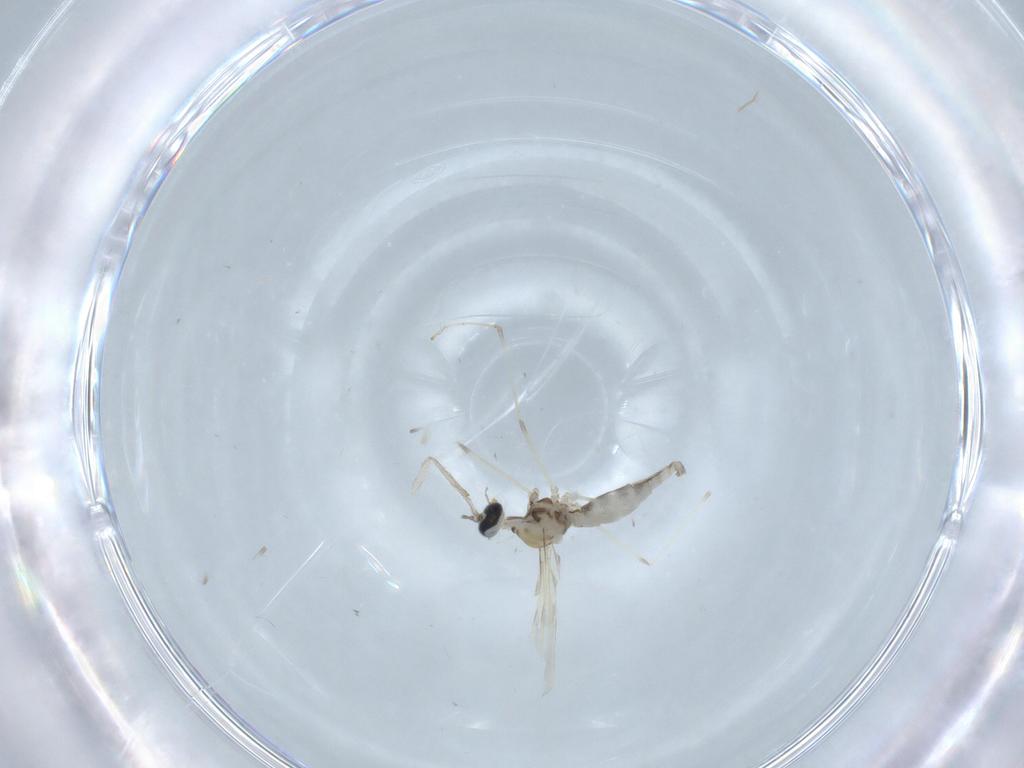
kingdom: Animalia
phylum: Arthropoda
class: Insecta
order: Diptera
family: Cecidomyiidae
